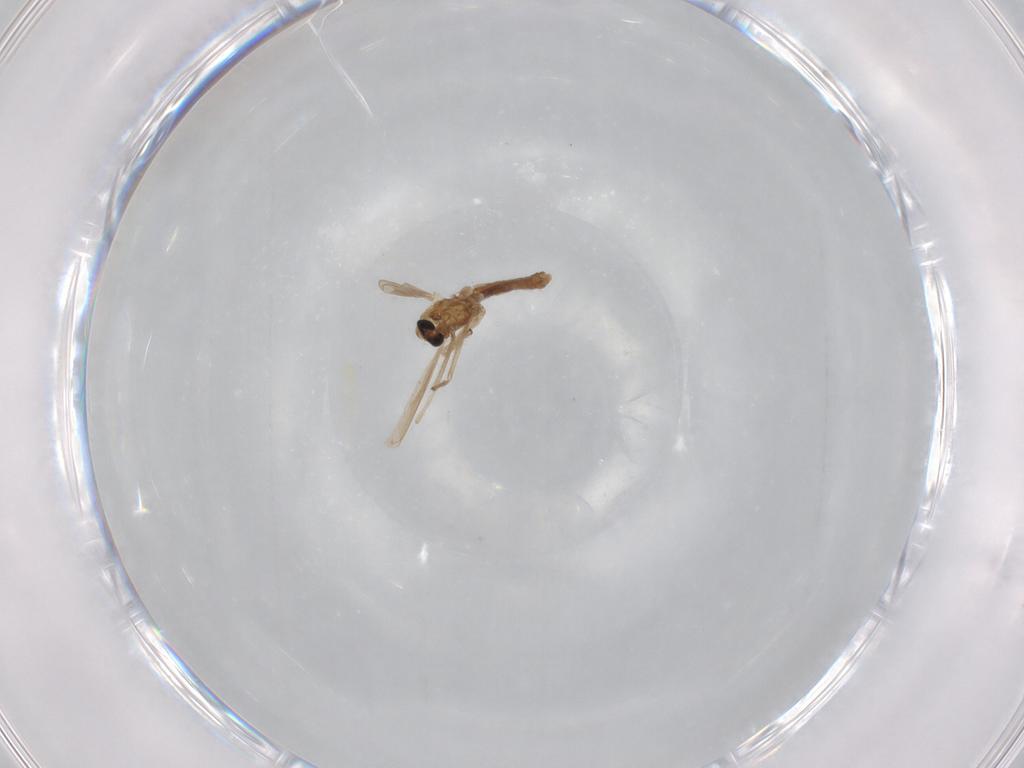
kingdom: Animalia
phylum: Arthropoda
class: Insecta
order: Diptera
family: Mycetophilidae
